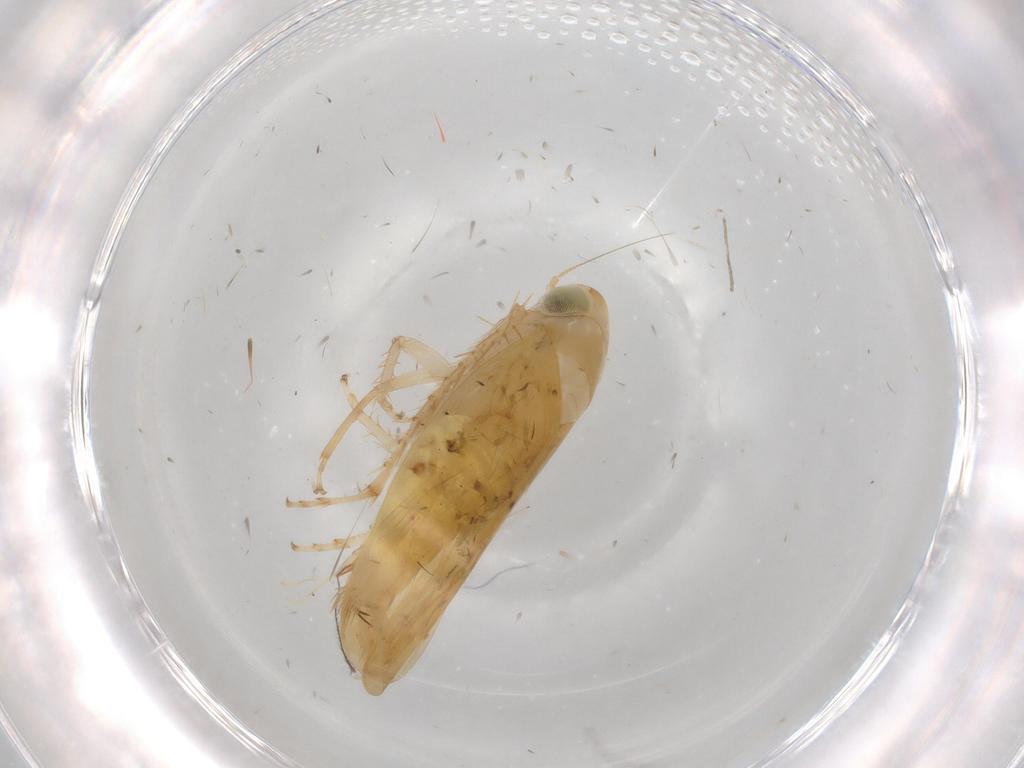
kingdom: Animalia
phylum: Arthropoda
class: Insecta
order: Hemiptera
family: Cicadellidae
